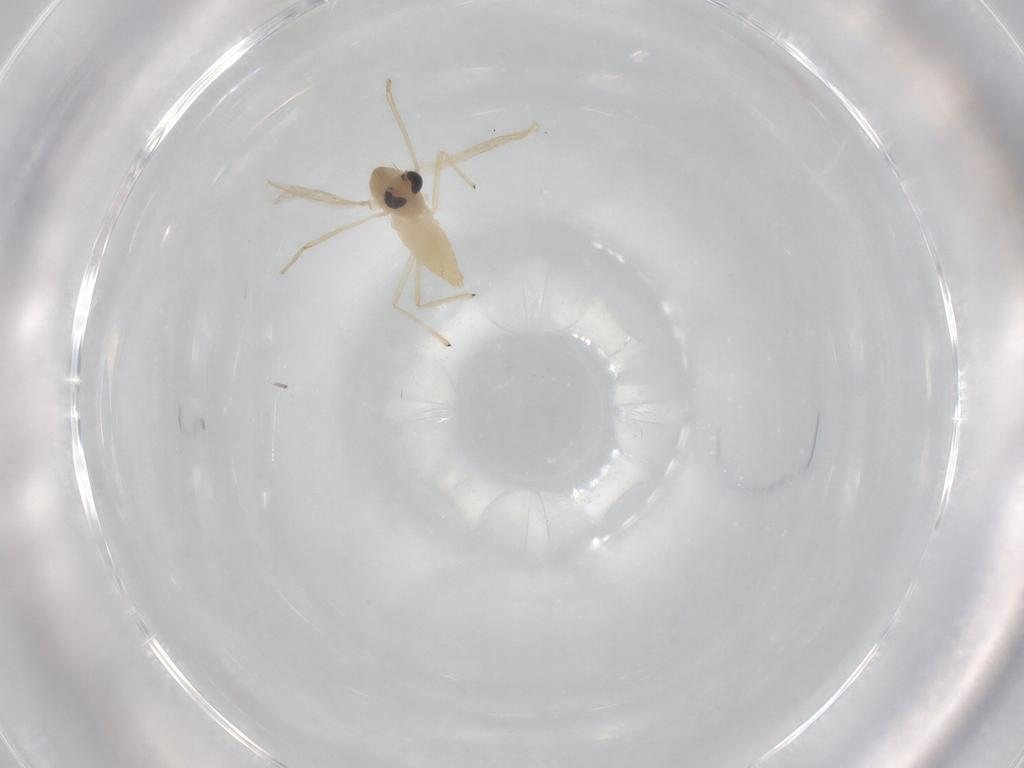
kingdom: Animalia
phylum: Arthropoda
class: Insecta
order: Diptera
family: Chironomidae
